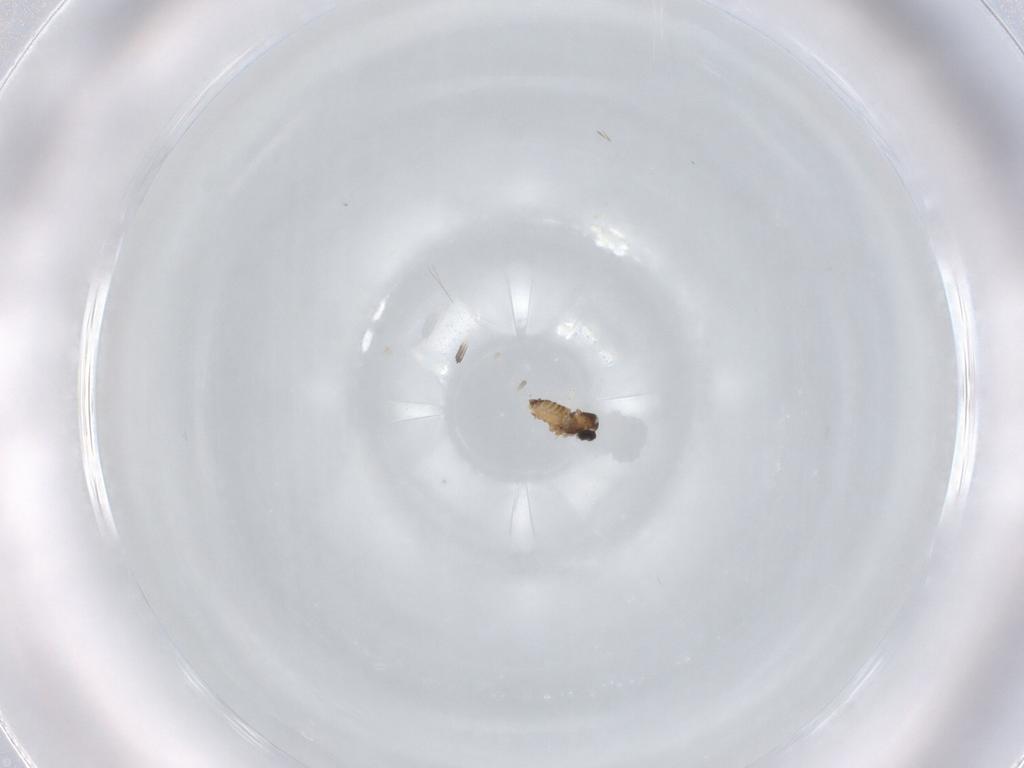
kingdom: Animalia
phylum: Arthropoda
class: Insecta
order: Diptera
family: Cecidomyiidae
